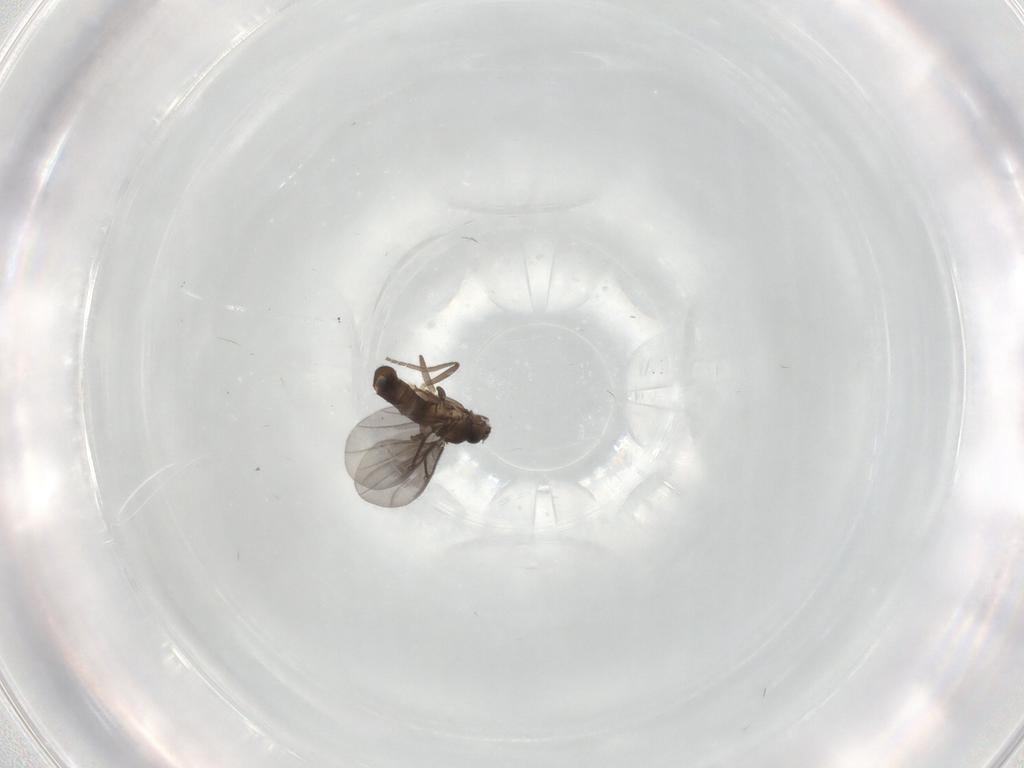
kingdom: Animalia
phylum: Arthropoda
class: Insecta
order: Diptera
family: Phoridae
